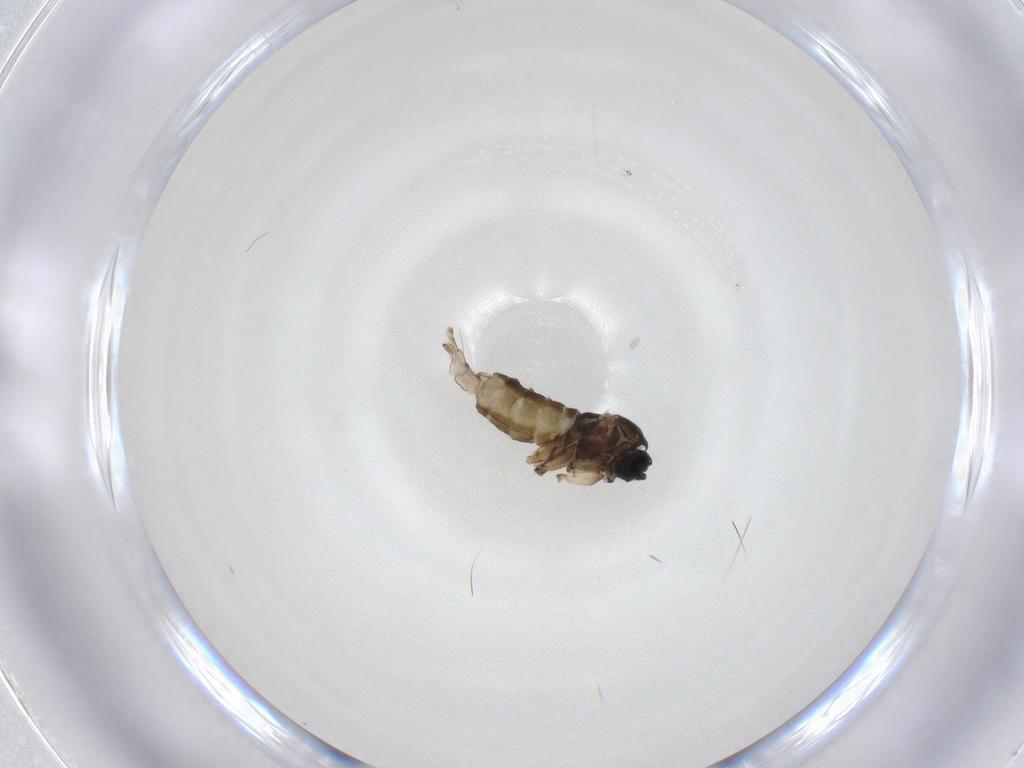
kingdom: Animalia
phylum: Arthropoda
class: Insecta
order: Diptera
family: Sciaridae
